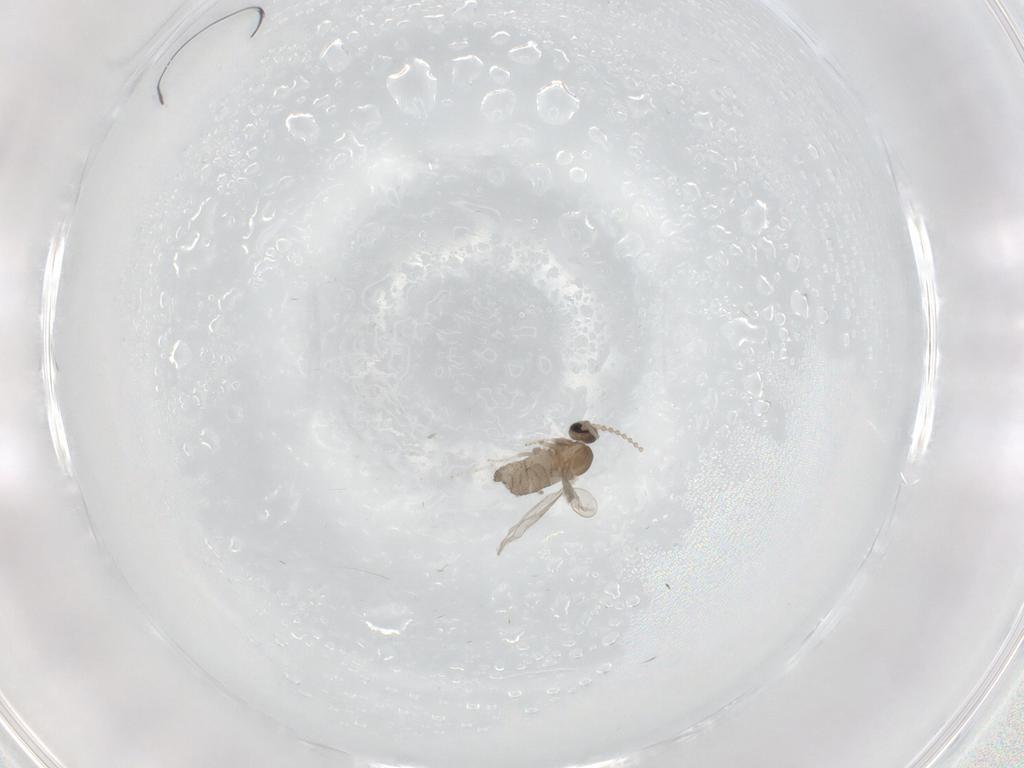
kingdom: Animalia
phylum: Arthropoda
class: Insecta
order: Diptera
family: Cecidomyiidae
